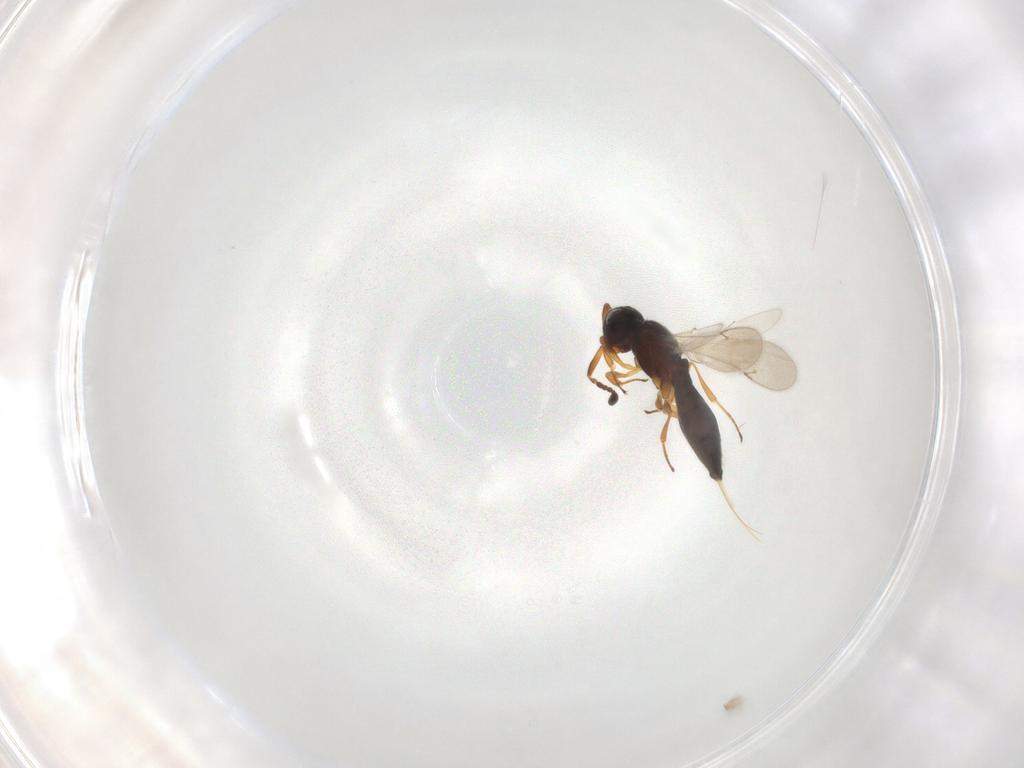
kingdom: Animalia
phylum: Arthropoda
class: Insecta
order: Hymenoptera
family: Scelionidae
